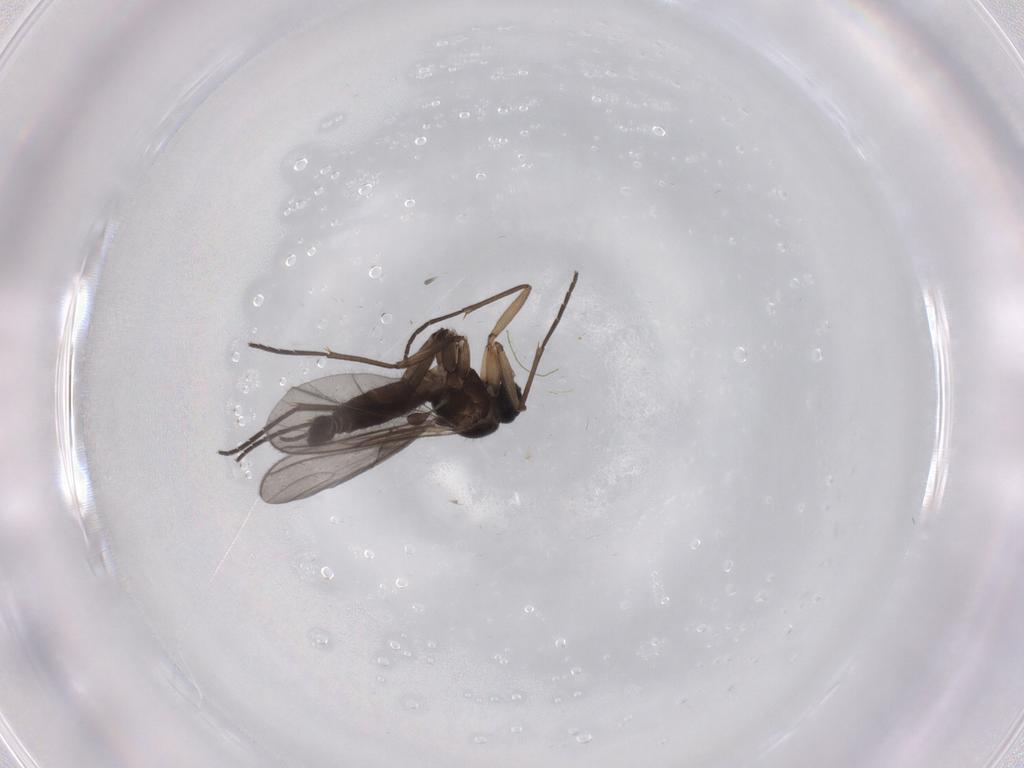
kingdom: Animalia
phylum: Arthropoda
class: Insecta
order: Diptera
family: Sciaridae
